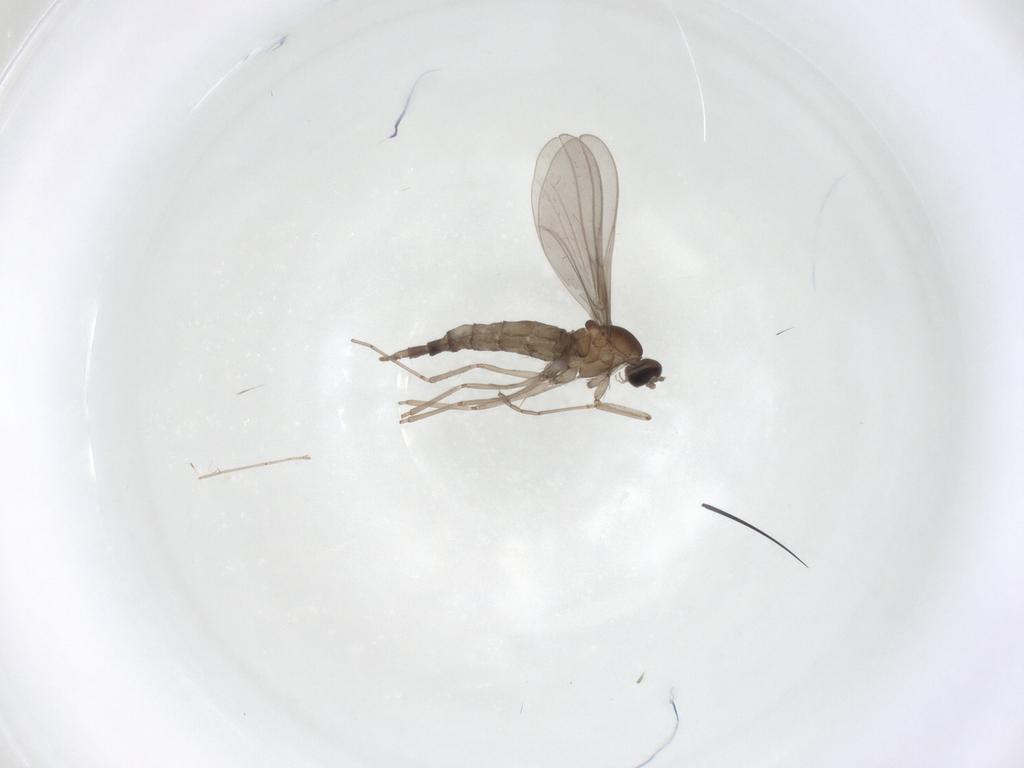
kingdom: Animalia
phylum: Arthropoda
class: Insecta
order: Diptera
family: Cecidomyiidae
